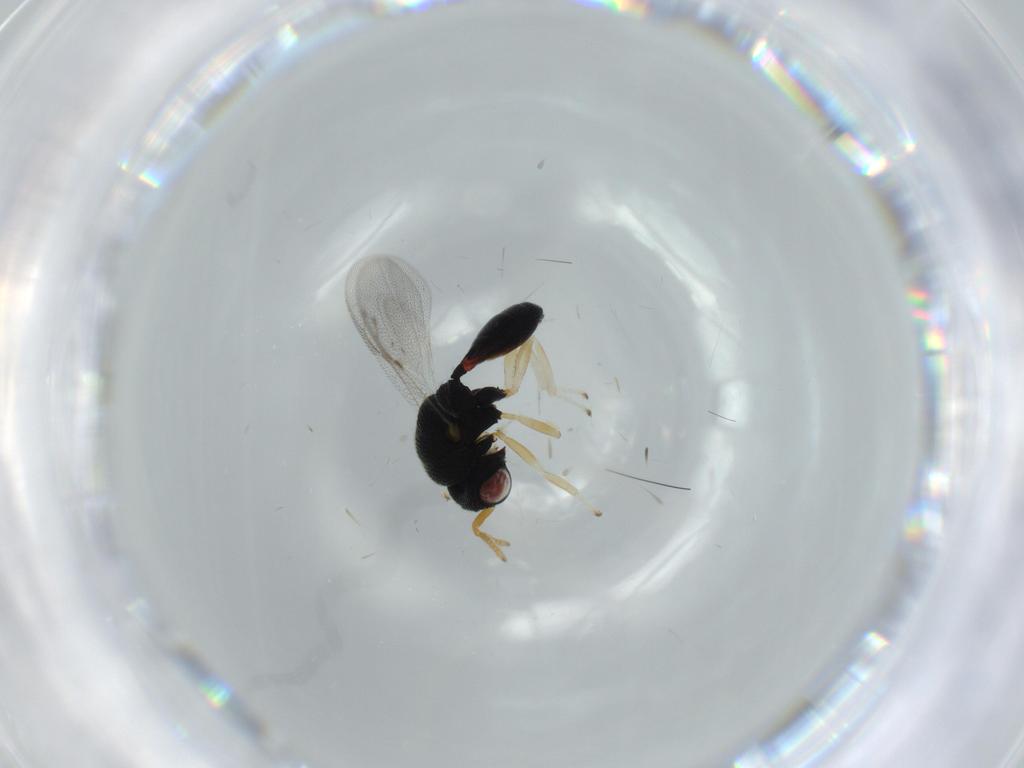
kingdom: Animalia
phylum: Arthropoda
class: Insecta
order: Hymenoptera
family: Eurytomidae
